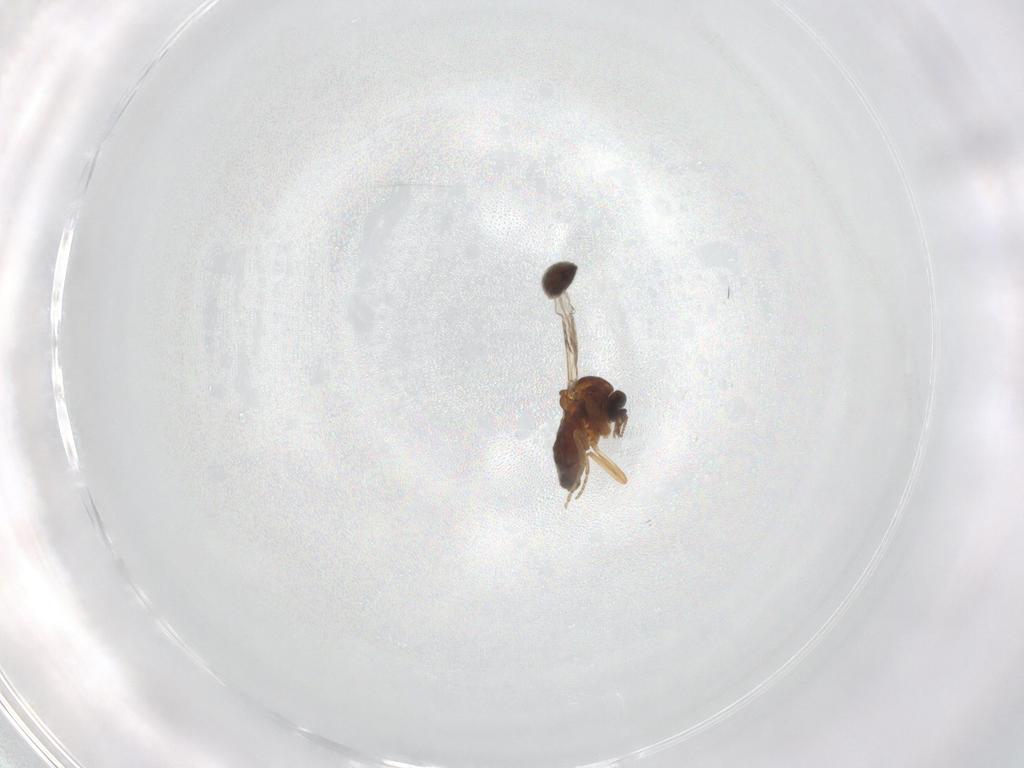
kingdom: Animalia
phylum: Arthropoda
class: Insecta
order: Diptera
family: Ceratopogonidae
